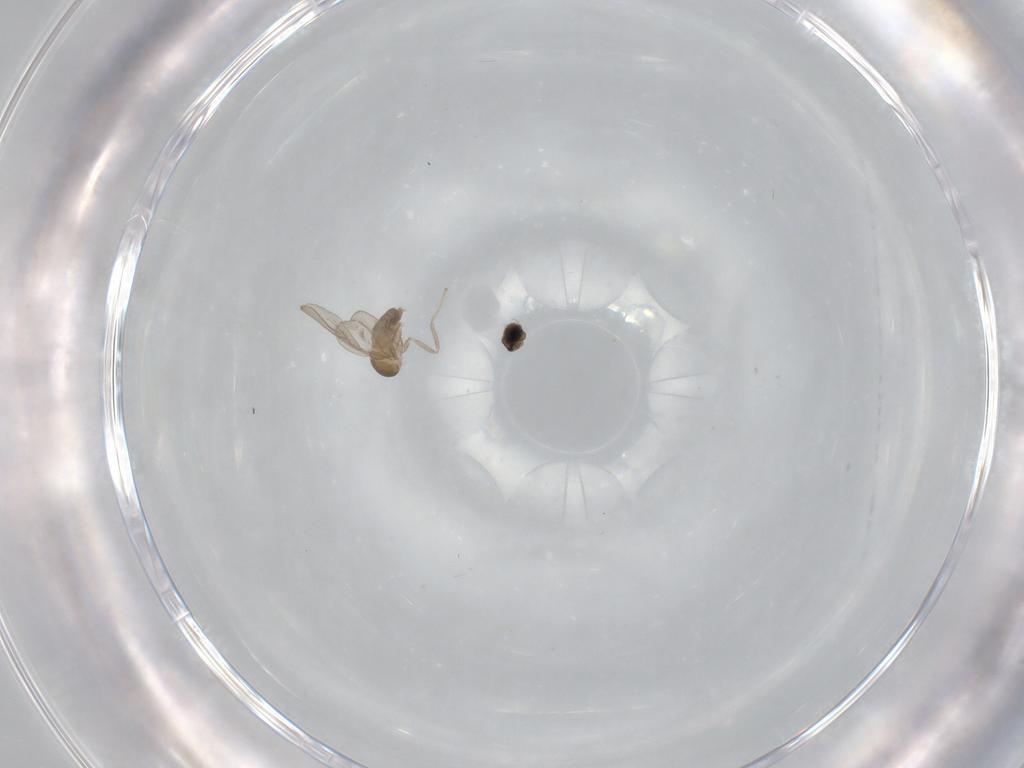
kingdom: Animalia
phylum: Arthropoda
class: Insecta
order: Diptera
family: Cecidomyiidae
